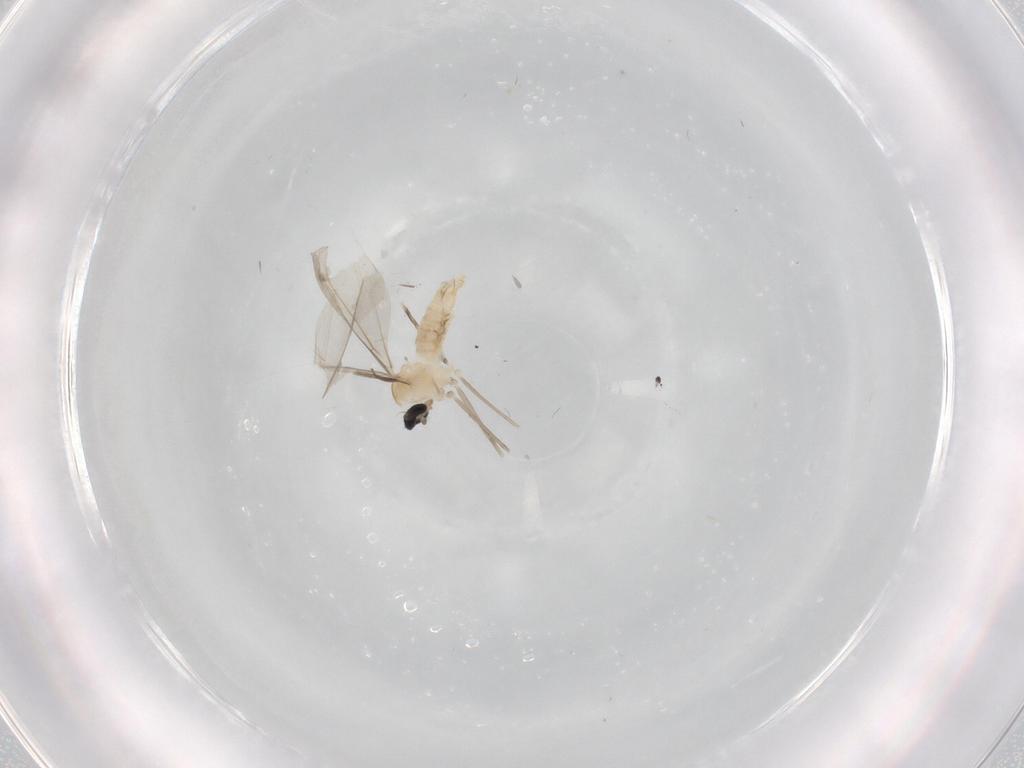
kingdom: Animalia
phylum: Arthropoda
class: Insecta
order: Diptera
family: Cecidomyiidae
